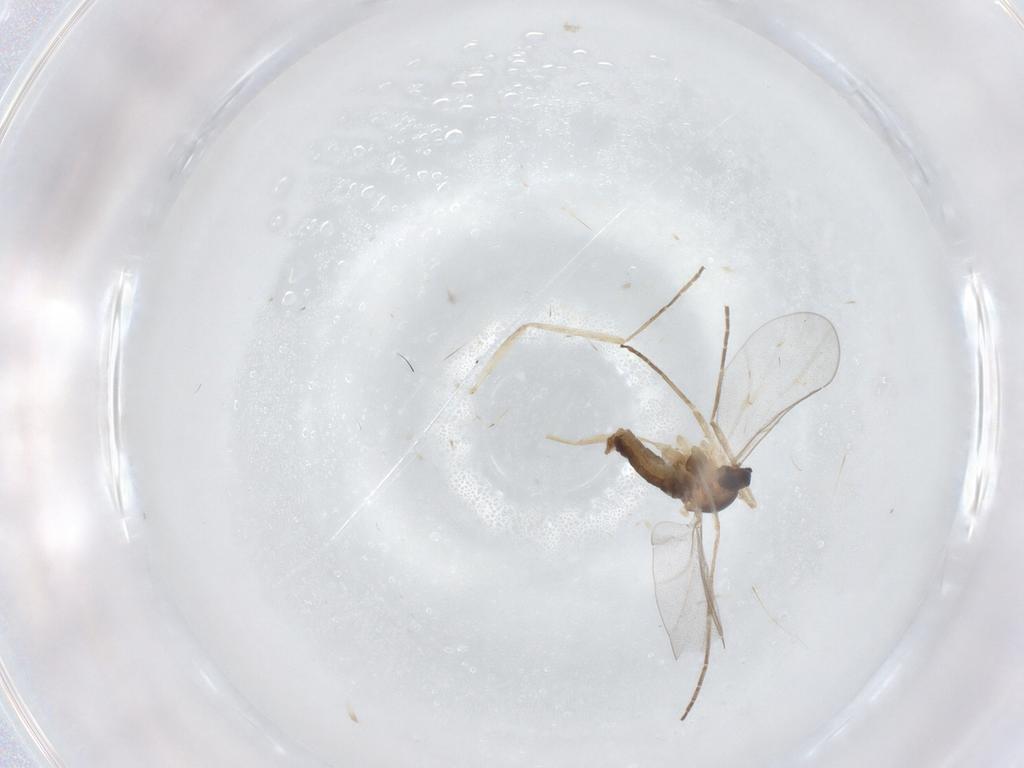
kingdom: Animalia
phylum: Arthropoda
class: Insecta
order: Diptera
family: Cecidomyiidae
